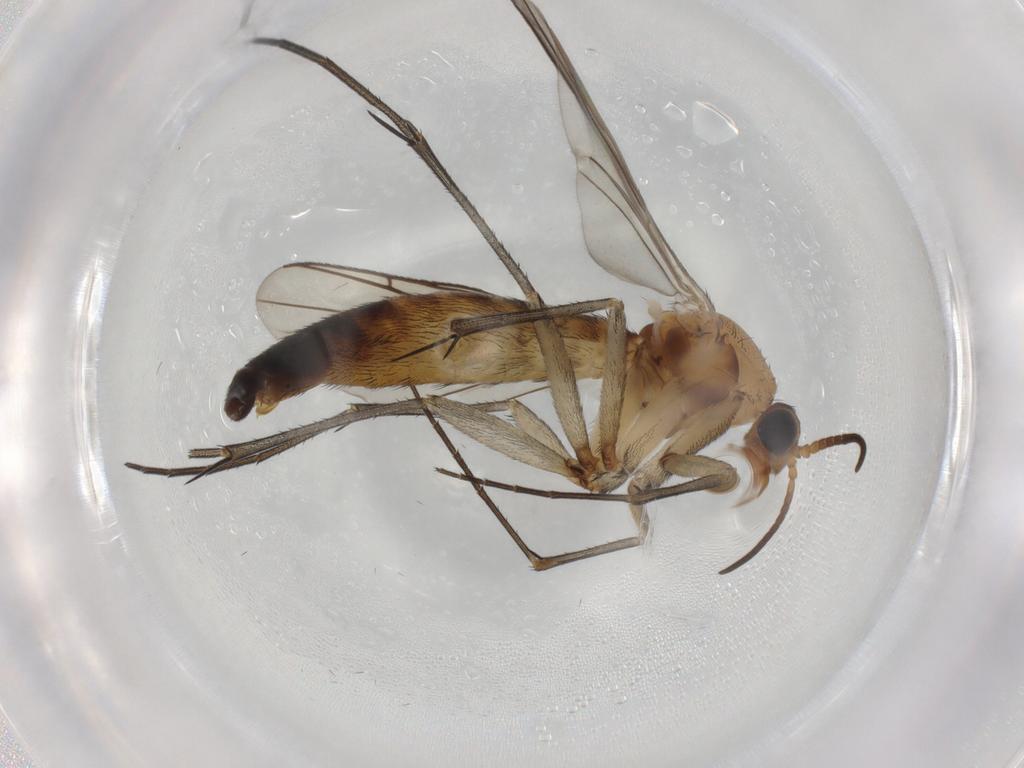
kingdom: Animalia
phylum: Arthropoda
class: Insecta
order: Diptera
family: Keroplatidae
